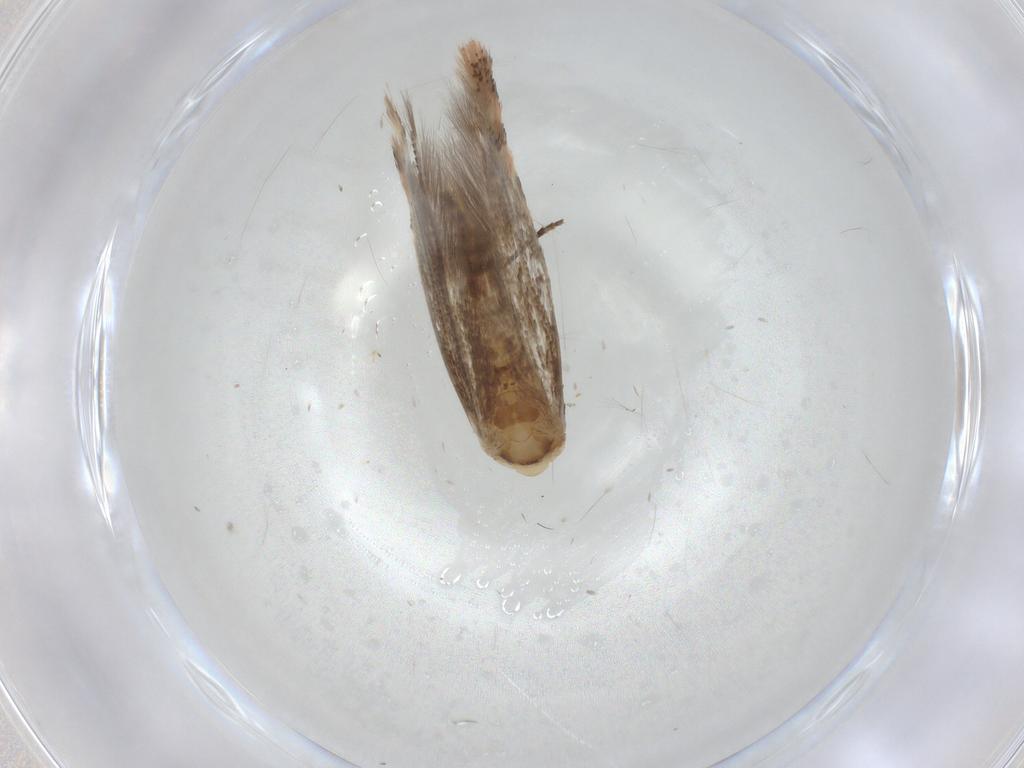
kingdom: Animalia
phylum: Arthropoda
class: Insecta
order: Lepidoptera
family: Gracillariidae
